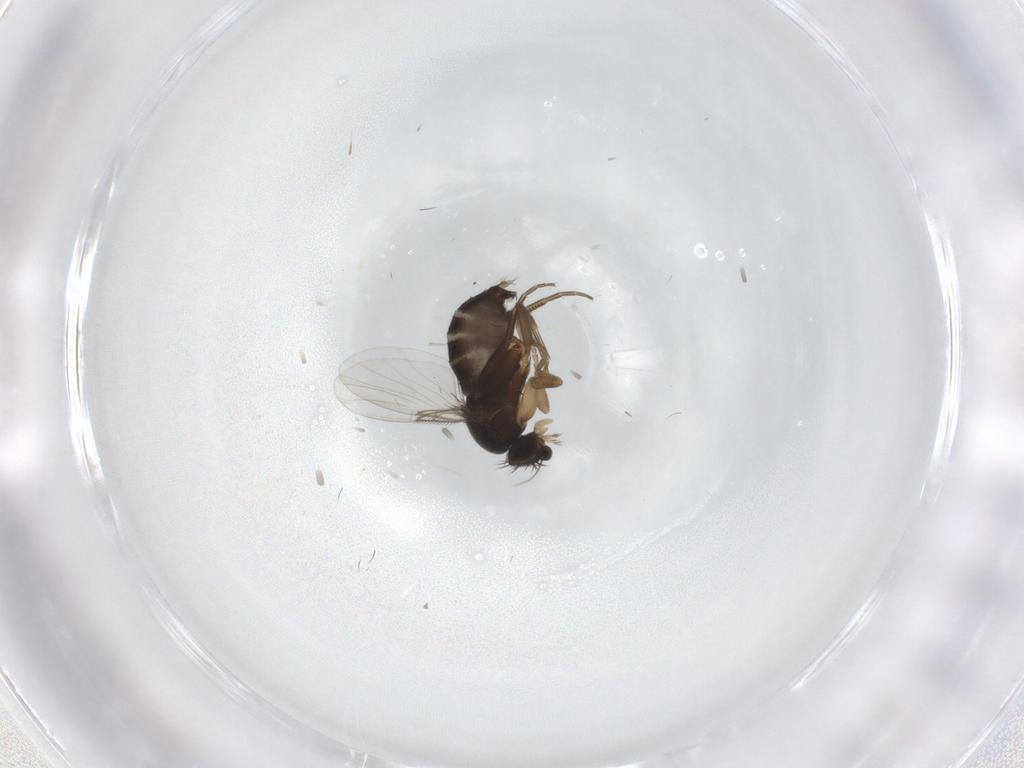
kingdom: Animalia
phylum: Arthropoda
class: Insecta
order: Diptera
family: Phoridae
